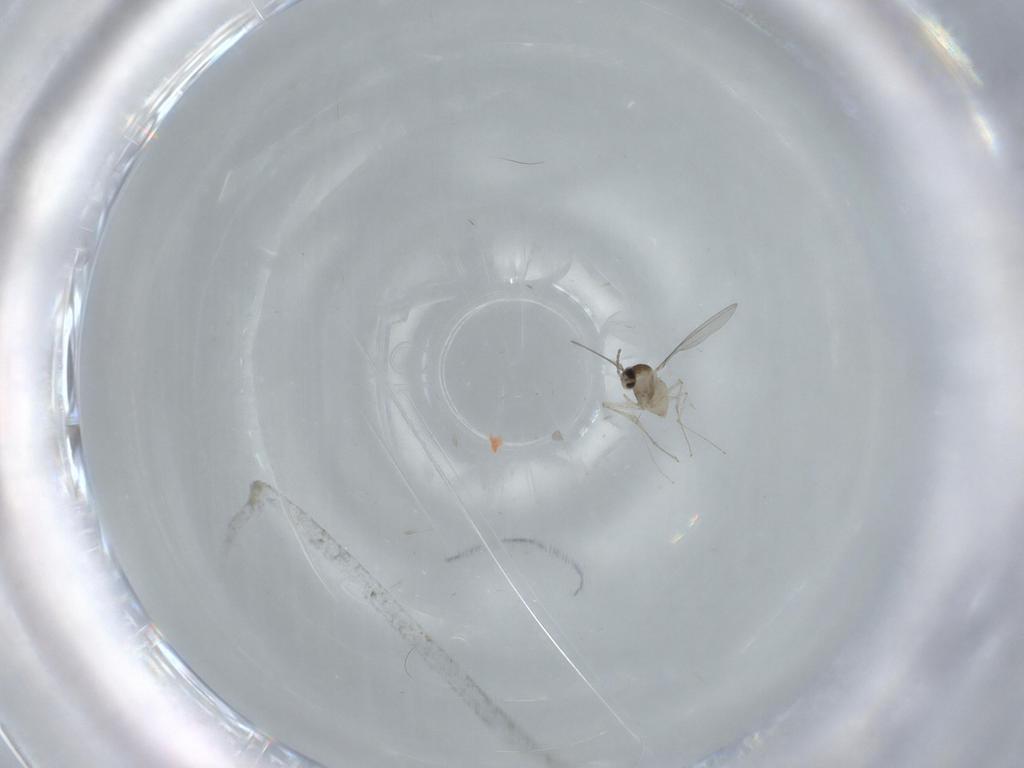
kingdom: Animalia
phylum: Arthropoda
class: Insecta
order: Diptera
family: Cecidomyiidae
